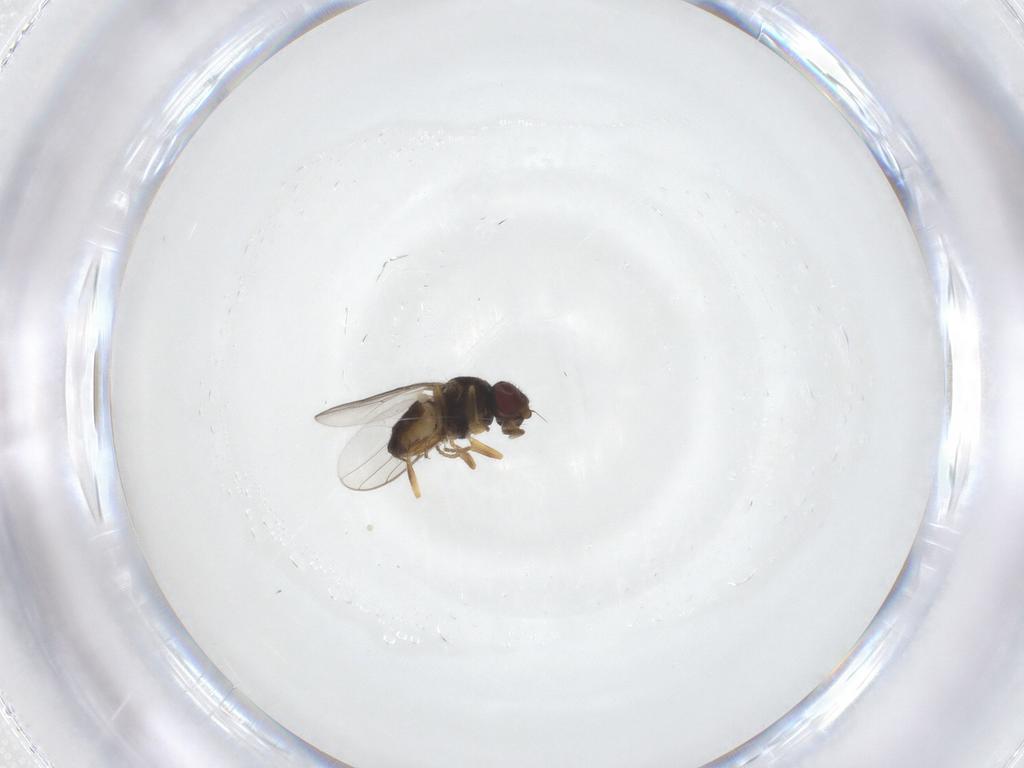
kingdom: Animalia
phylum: Arthropoda
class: Insecta
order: Diptera
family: Chloropidae
